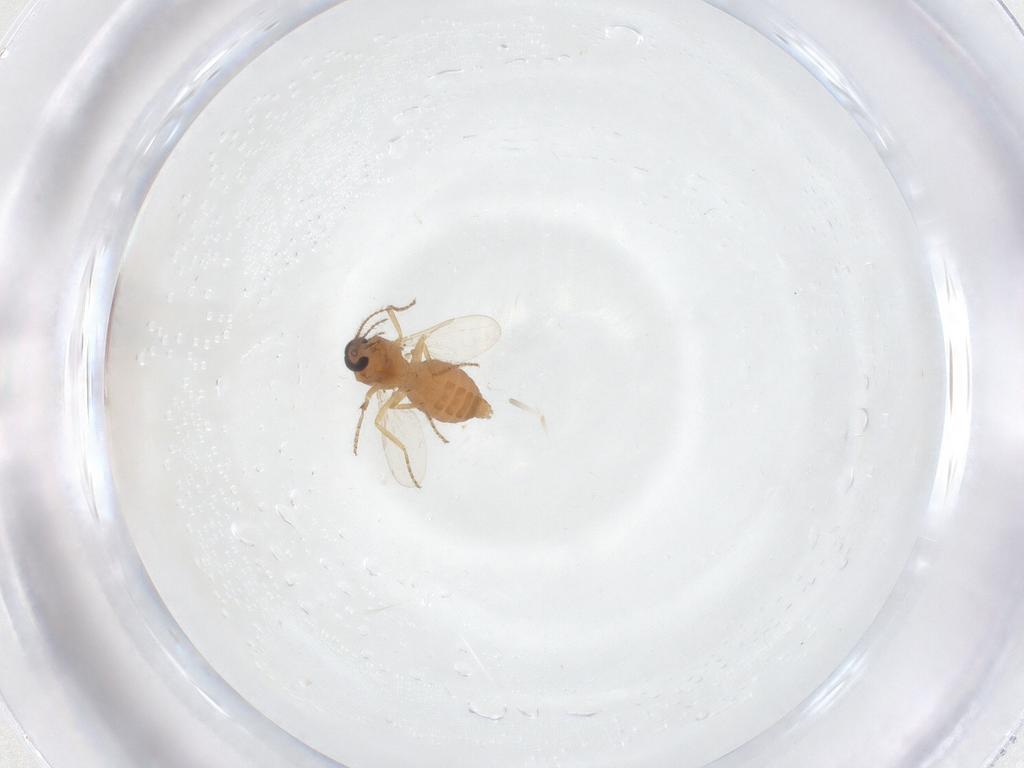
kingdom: Animalia
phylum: Arthropoda
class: Insecta
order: Diptera
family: Ceratopogonidae
